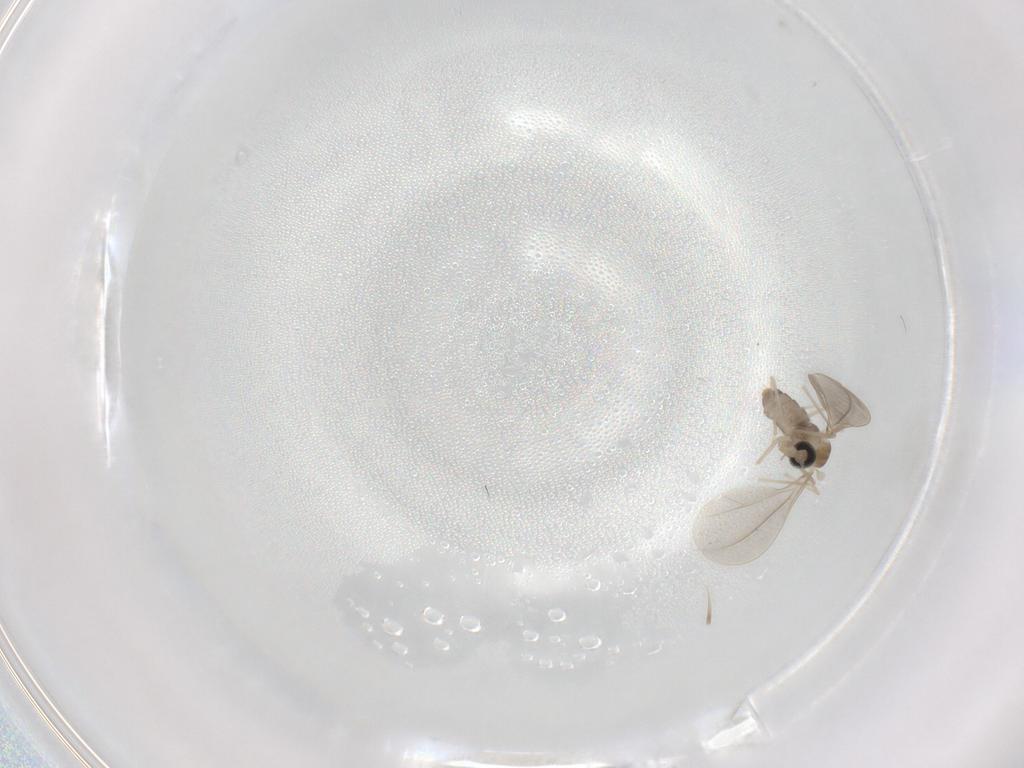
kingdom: Animalia
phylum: Arthropoda
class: Insecta
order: Diptera
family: Cecidomyiidae
